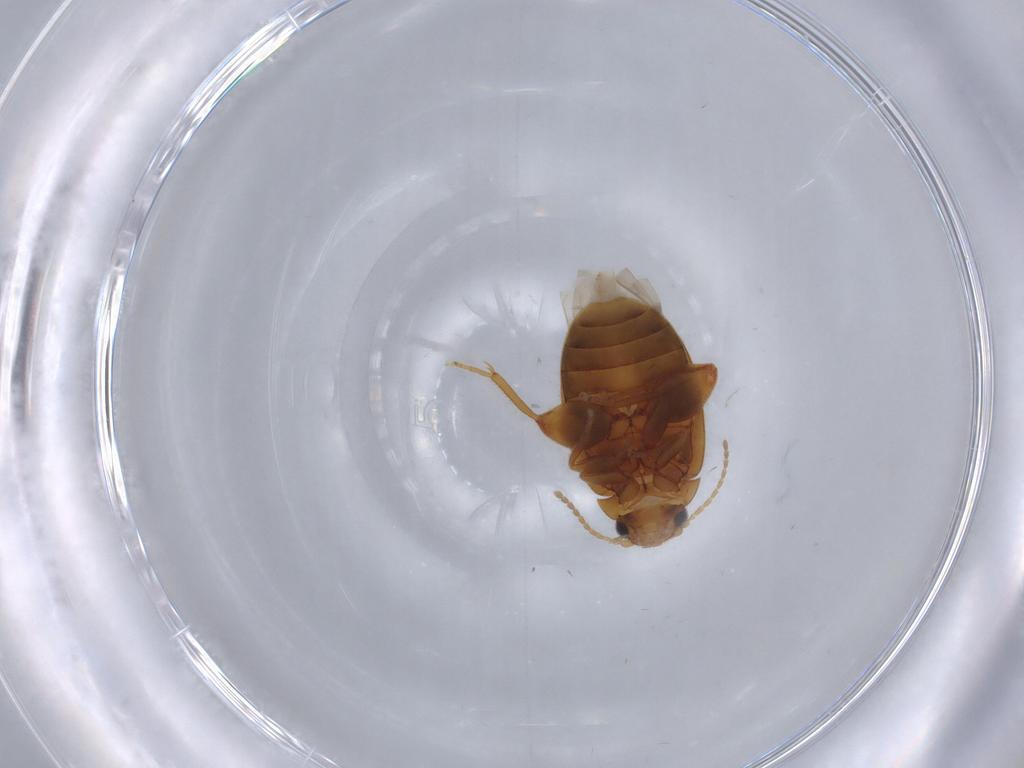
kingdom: Animalia
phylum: Arthropoda
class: Insecta
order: Coleoptera
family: Scirtidae
